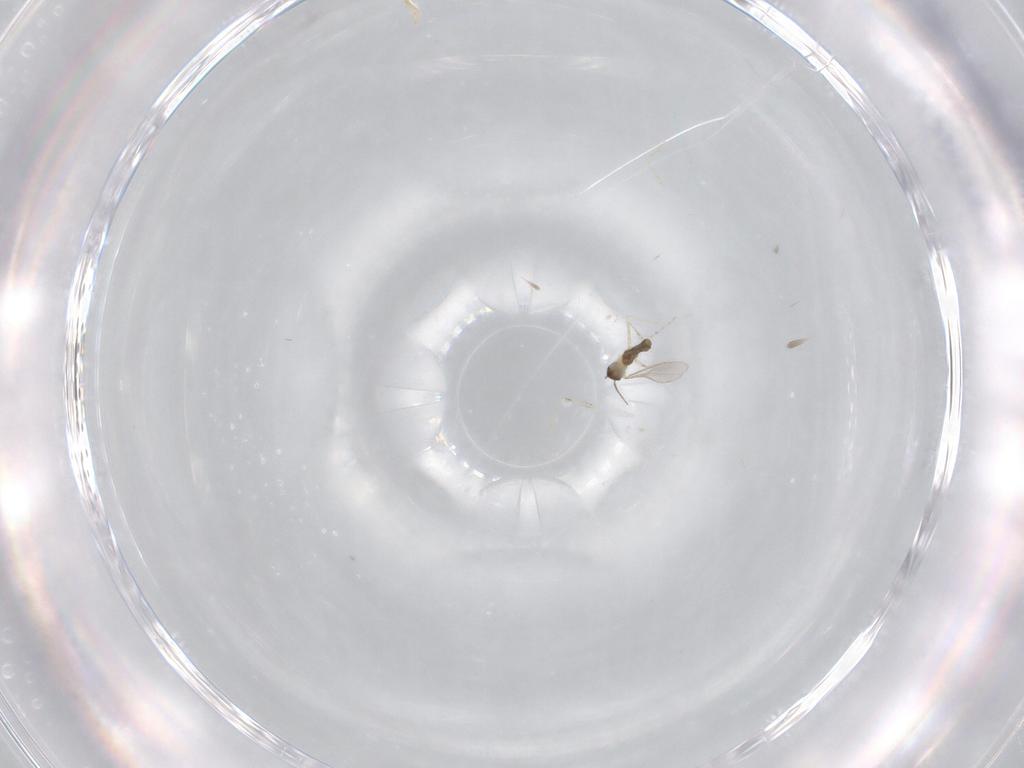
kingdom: Animalia
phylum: Arthropoda
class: Insecta
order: Diptera
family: Cecidomyiidae
